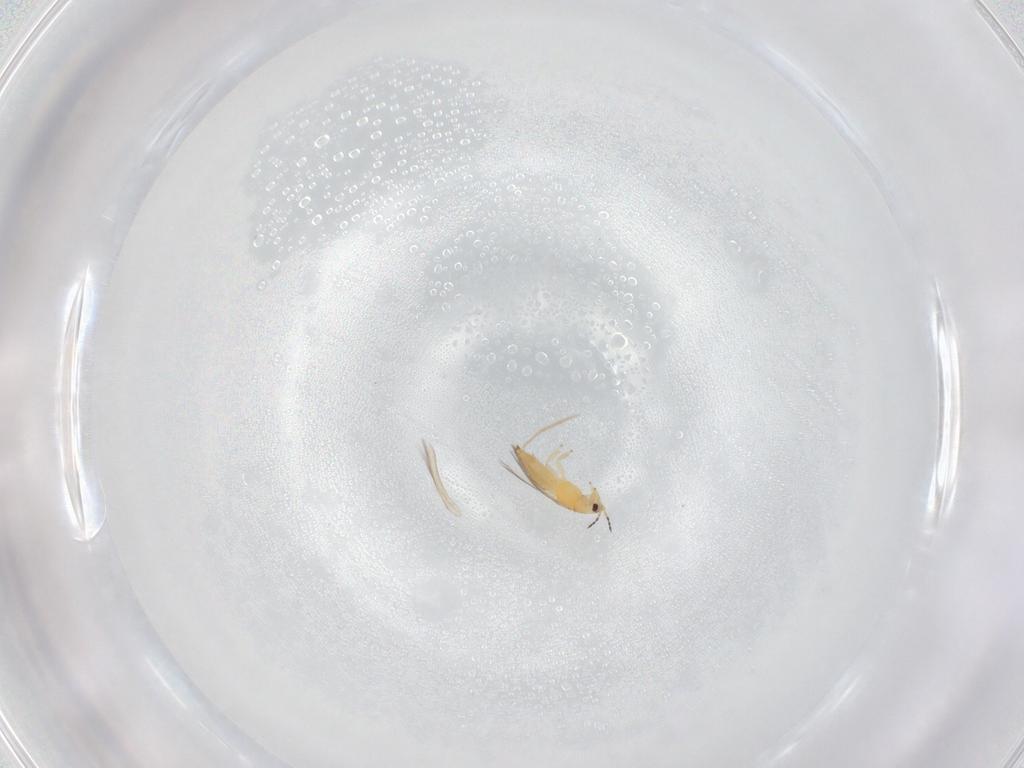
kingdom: Animalia
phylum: Arthropoda
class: Insecta
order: Thysanoptera
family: Thripidae
